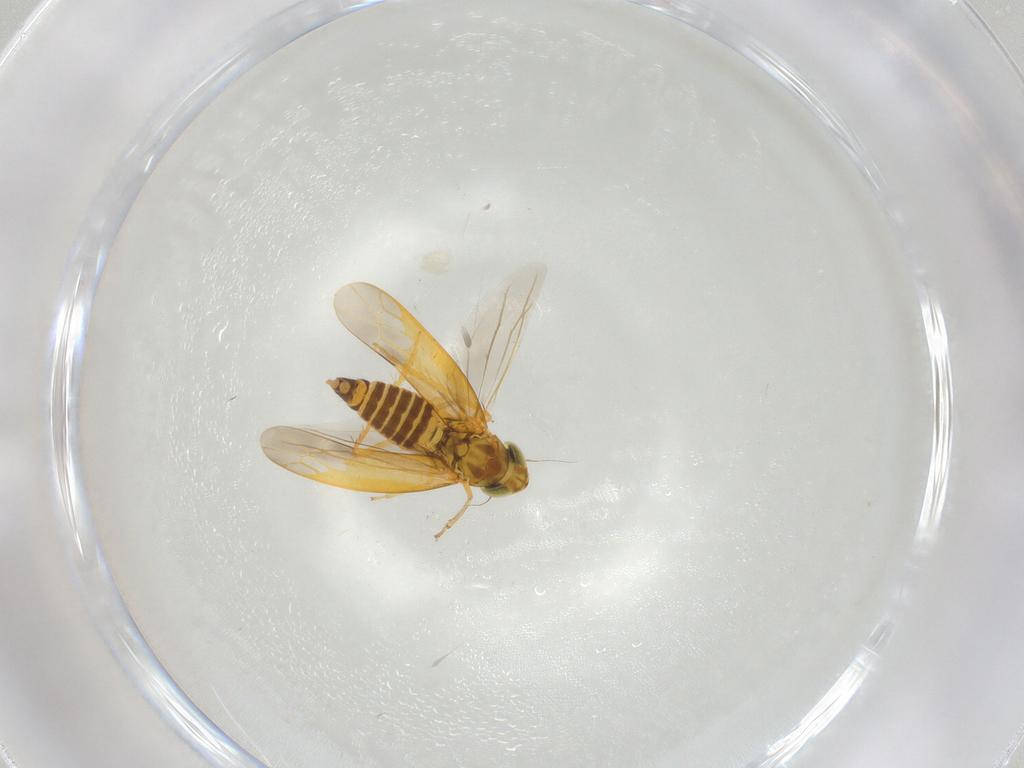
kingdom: Animalia
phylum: Arthropoda
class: Insecta
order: Hemiptera
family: Cicadellidae
